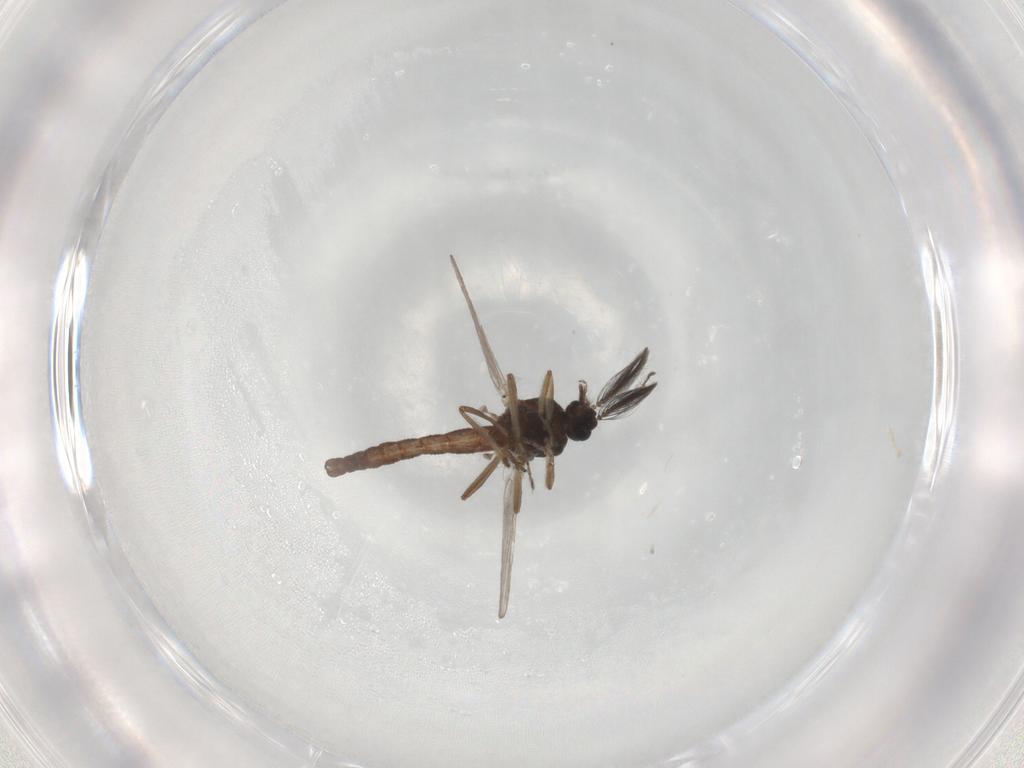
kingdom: Animalia
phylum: Arthropoda
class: Insecta
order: Diptera
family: Ceratopogonidae
